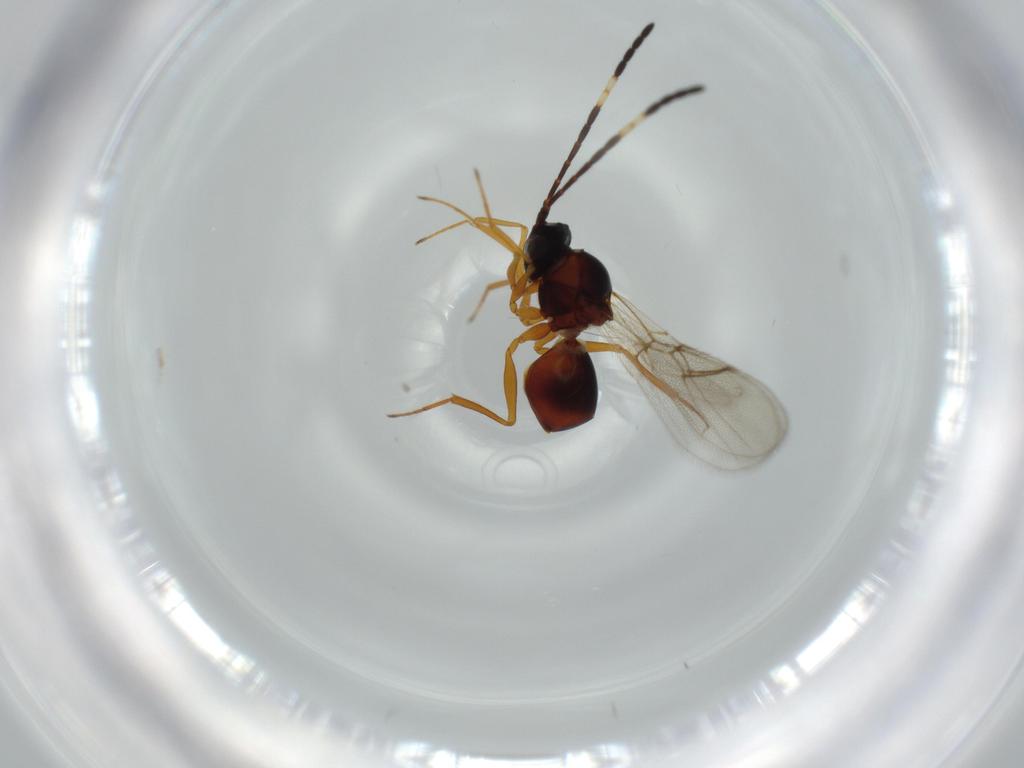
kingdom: Animalia
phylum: Arthropoda
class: Insecta
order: Hymenoptera
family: Figitidae
